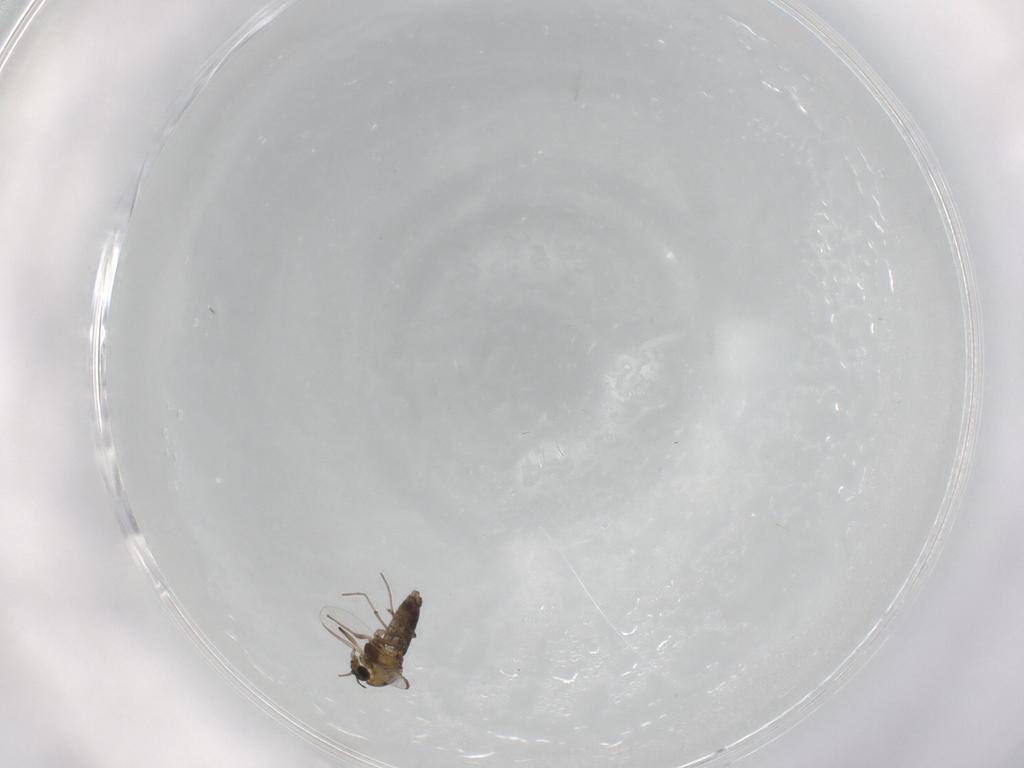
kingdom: Animalia
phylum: Arthropoda
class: Insecta
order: Diptera
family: Chironomidae
